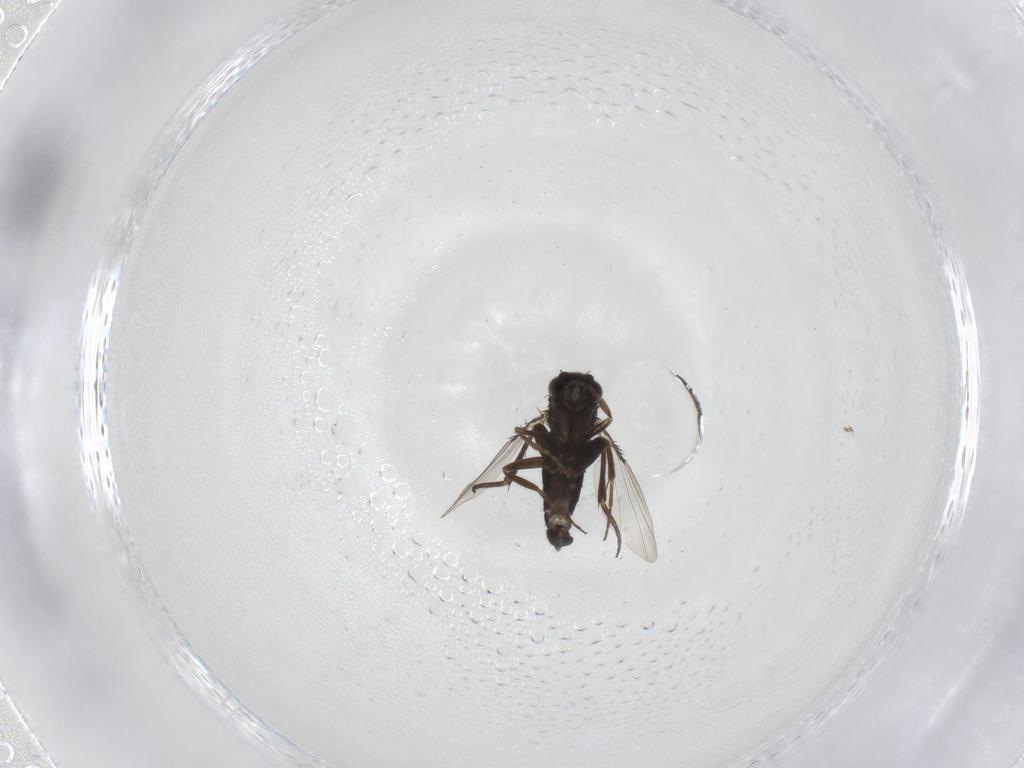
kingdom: Animalia
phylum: Arthropoda
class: Insecta
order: Diptera
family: Phoridae
